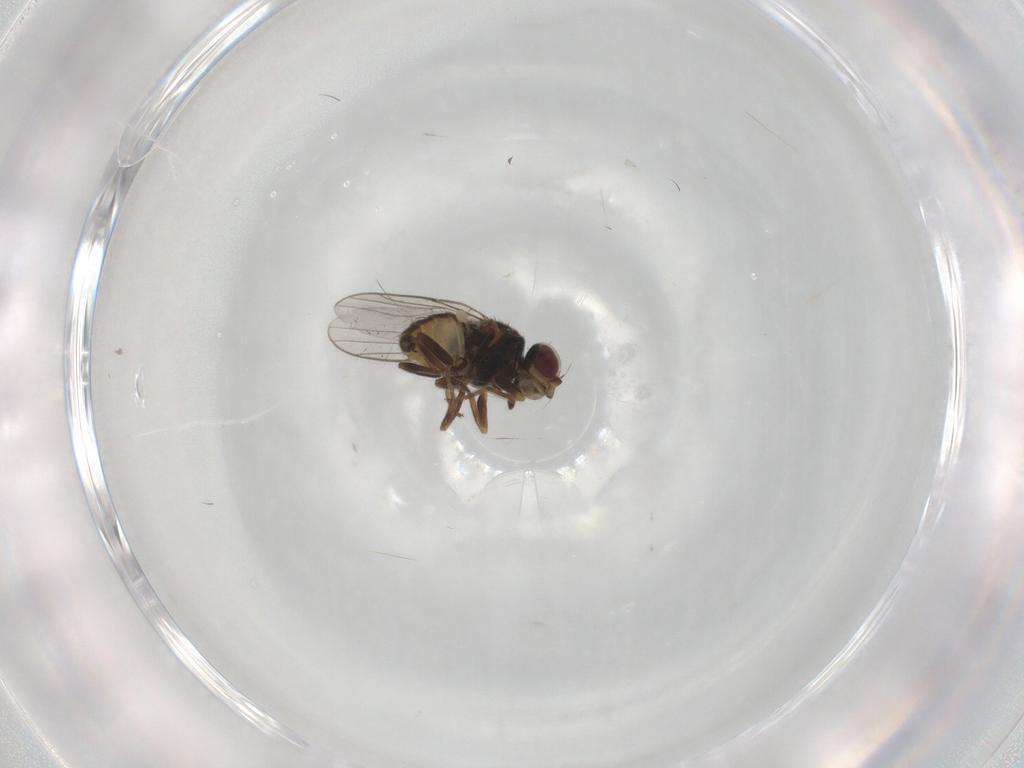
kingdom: Animalia
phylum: Arthropoda
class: Insecta
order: Diptera
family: Chloropidae
